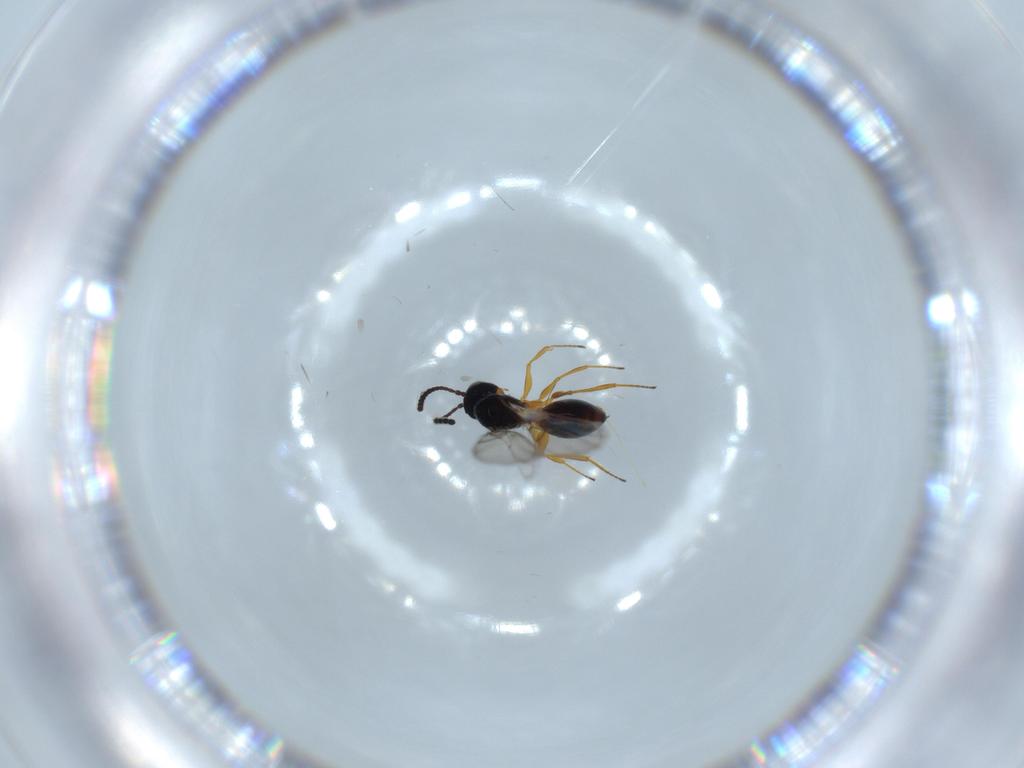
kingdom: Animalia
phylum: Arthropoda
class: Insecta
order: Hymenoptera
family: Figitidae
